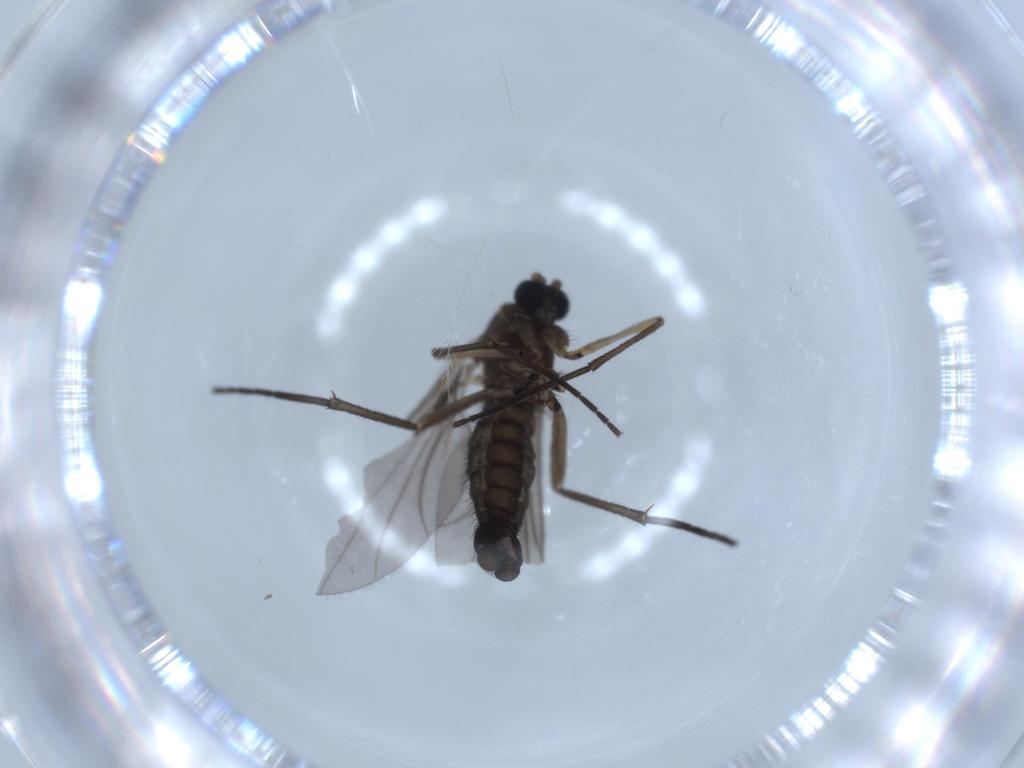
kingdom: Animalia
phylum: Arthropoda
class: Insecta
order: Diptera
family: Sciaridae
